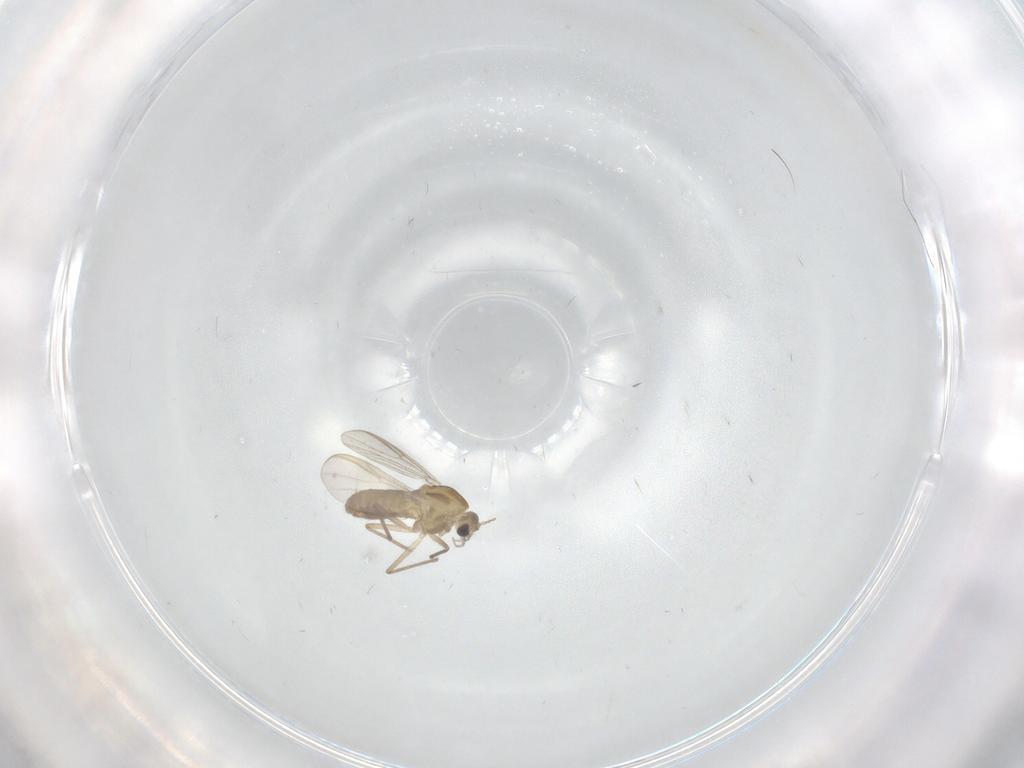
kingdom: Animalia
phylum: Arthropoda
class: Insecta
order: Diptera
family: Chironomidae
